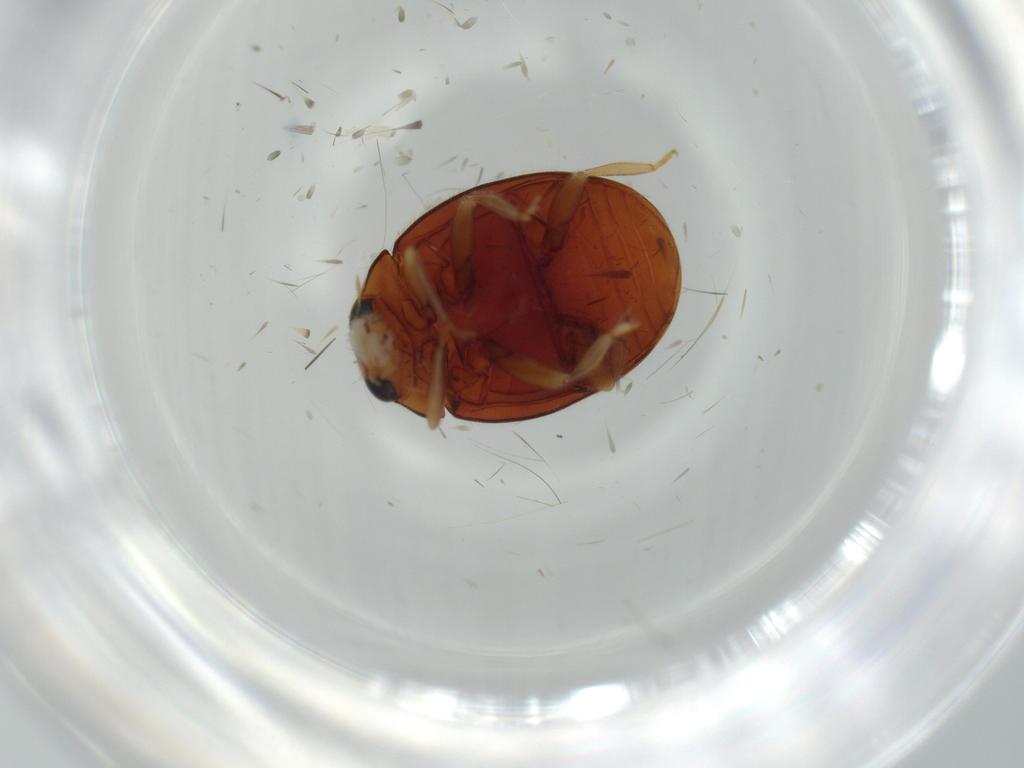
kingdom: Animalia
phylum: Arthropoda
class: Insecta
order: Coleoptera
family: Coccinellidae
